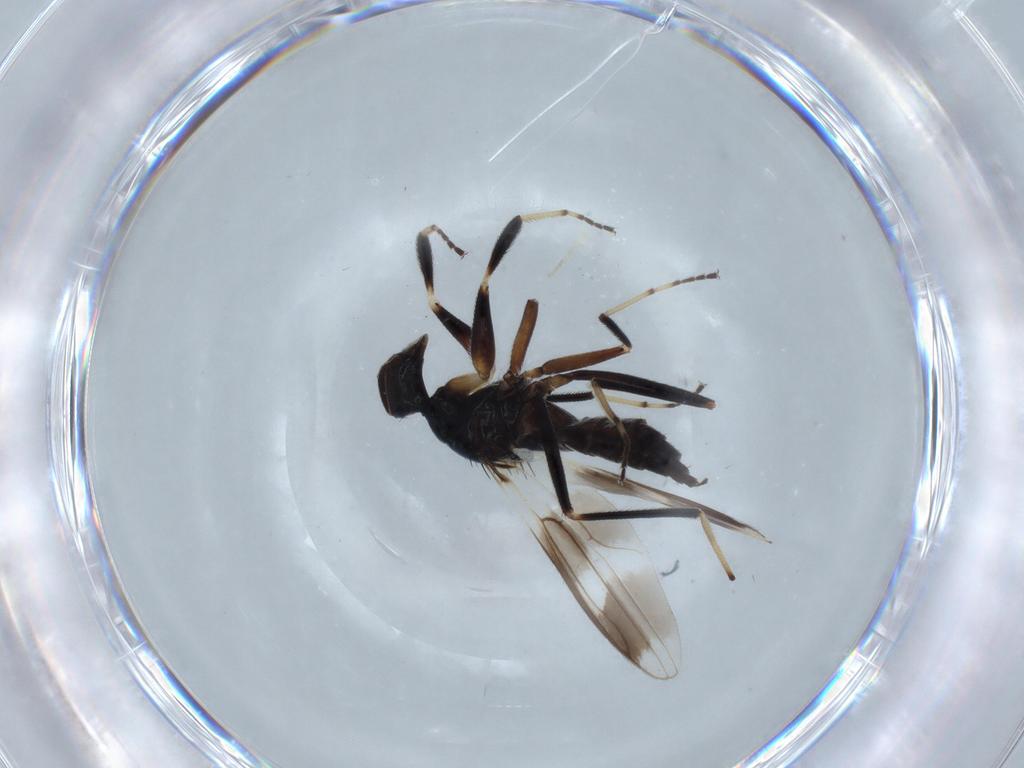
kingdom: Animalia
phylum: Arthropoda
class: Insecta
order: Diptera
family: Hybotidae
